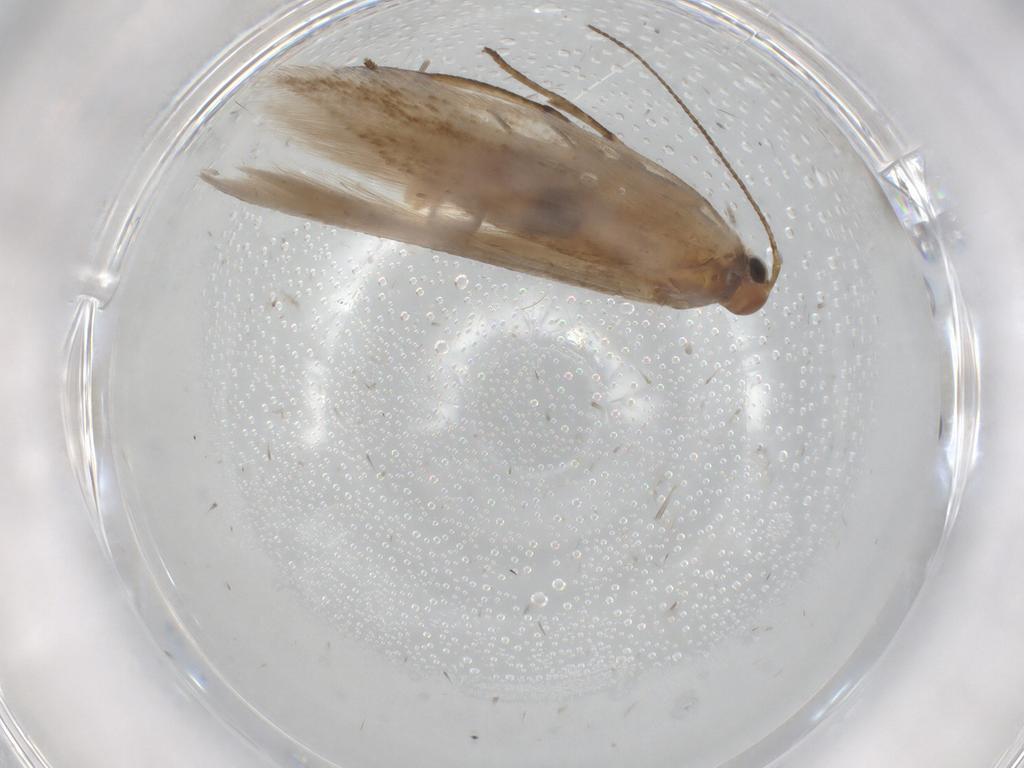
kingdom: Animalia
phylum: Arthropoda
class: Insecta
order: Lepidoptera
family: Gelechiidae
